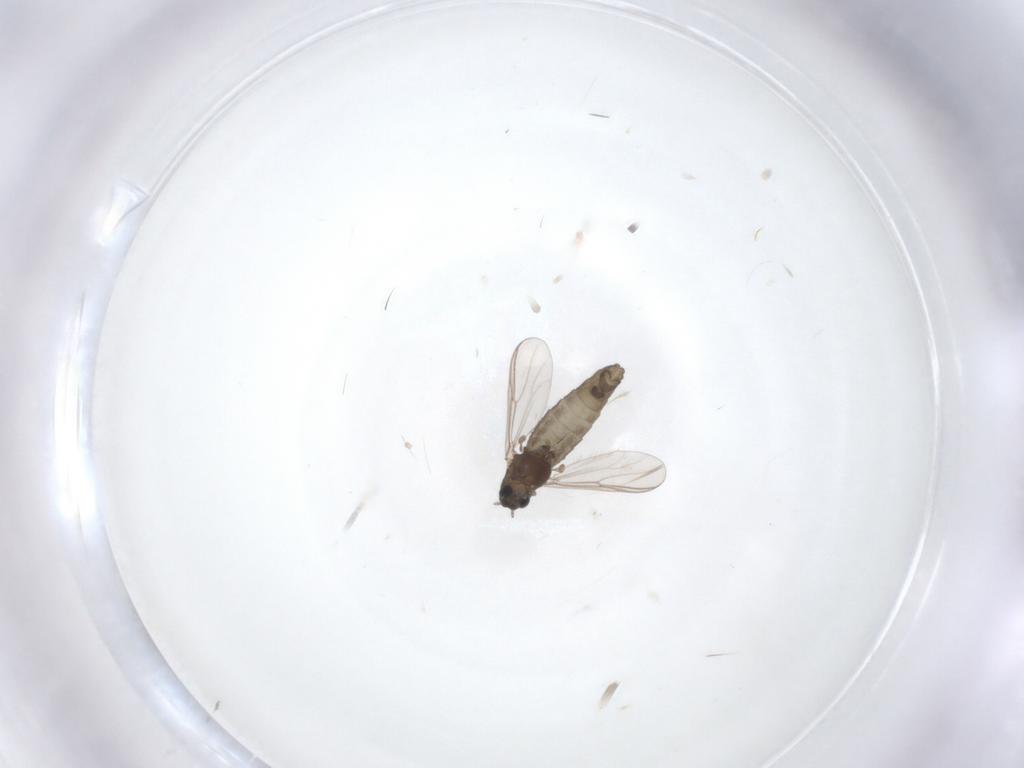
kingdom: Animalia
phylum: Arthropoda
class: Insecta
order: Diptera
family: Chironomidae
